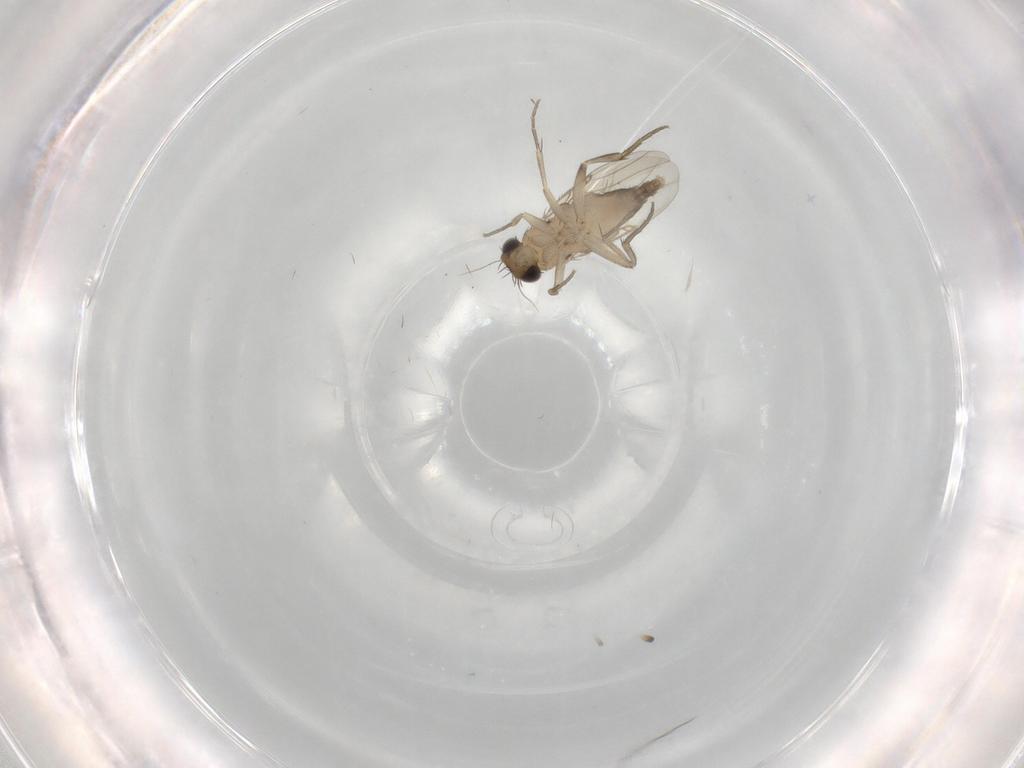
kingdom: Animalia
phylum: Arthropoda
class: Insecta
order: Diptera
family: Phoridae
